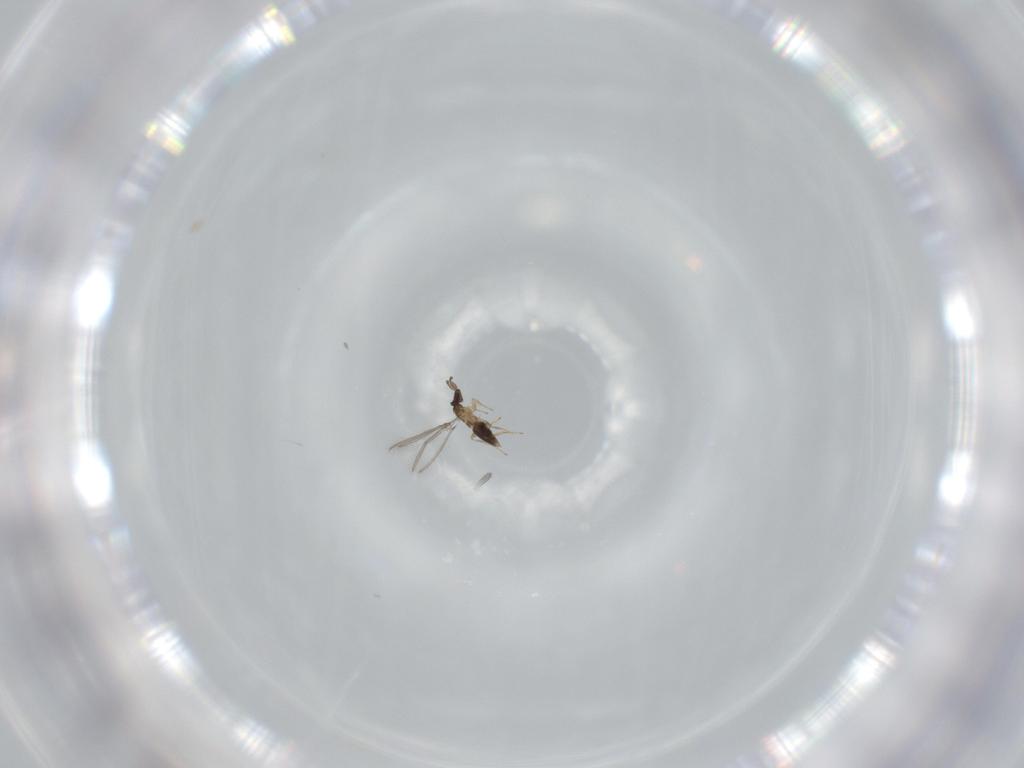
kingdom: Animalia
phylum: Arthropoda
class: Insecta
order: Hymenoptera
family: Mymaridae
